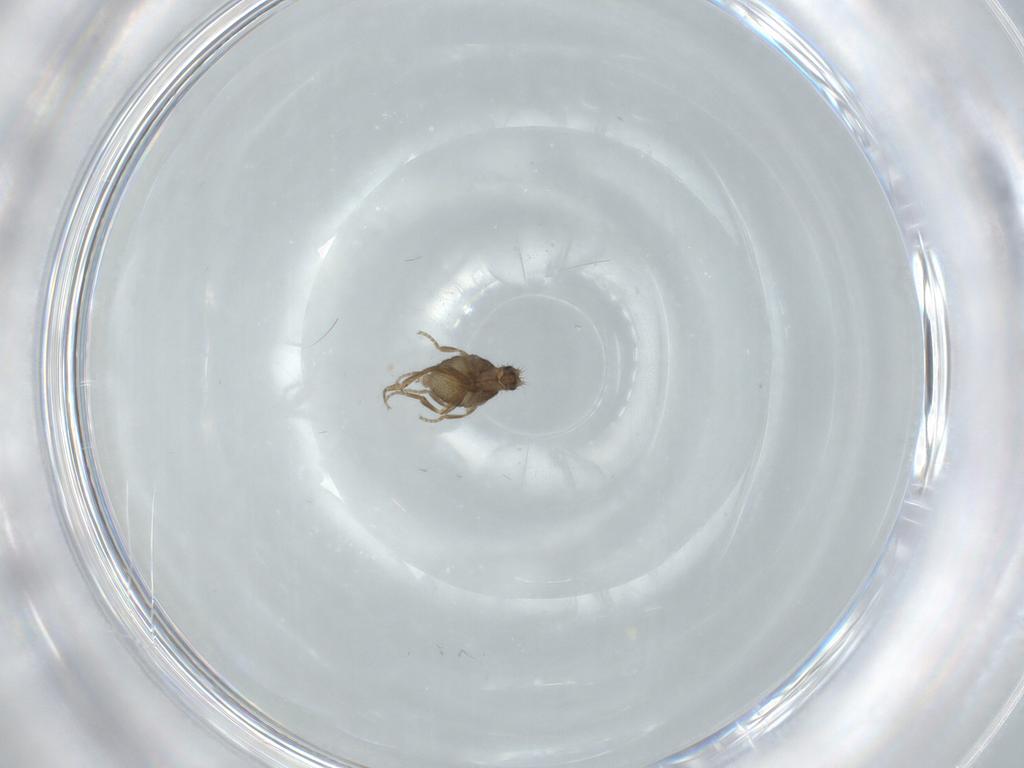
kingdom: Animalia
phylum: Arthropoda
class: Insecta
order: Diptera
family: Phoridae
